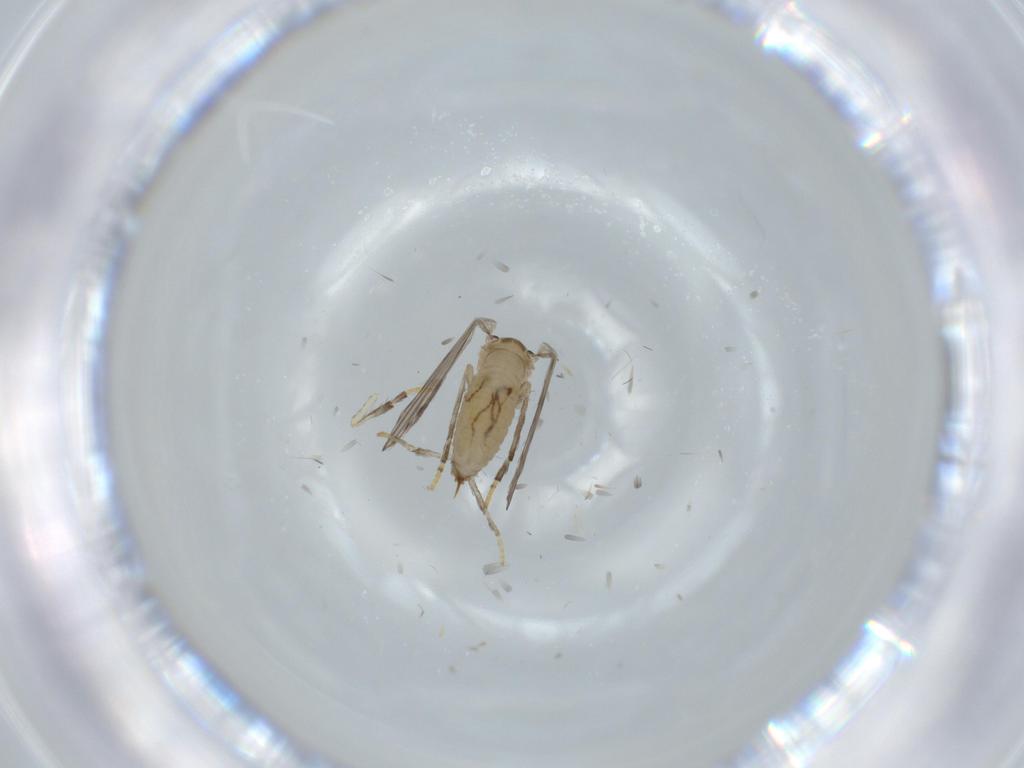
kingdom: Animalia
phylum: Arthropoda
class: Insecta
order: Diptera
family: Psychodidae
